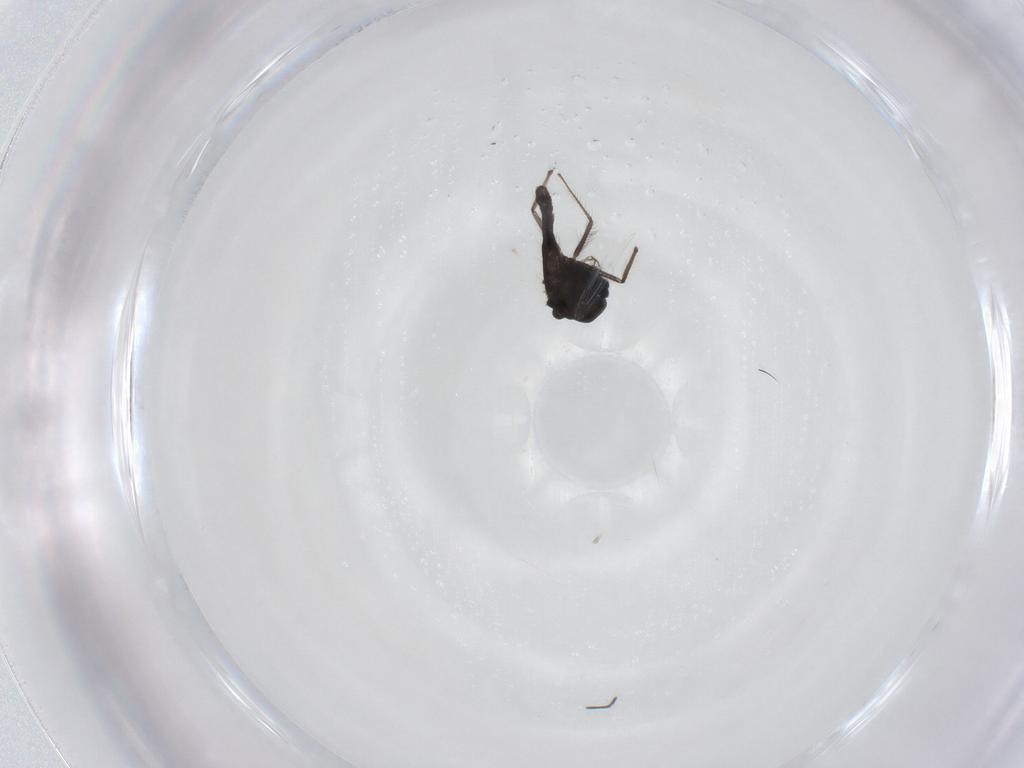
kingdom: Animalia
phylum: Arthropoda
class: Insecta
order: Diptera
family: Chironomidae
